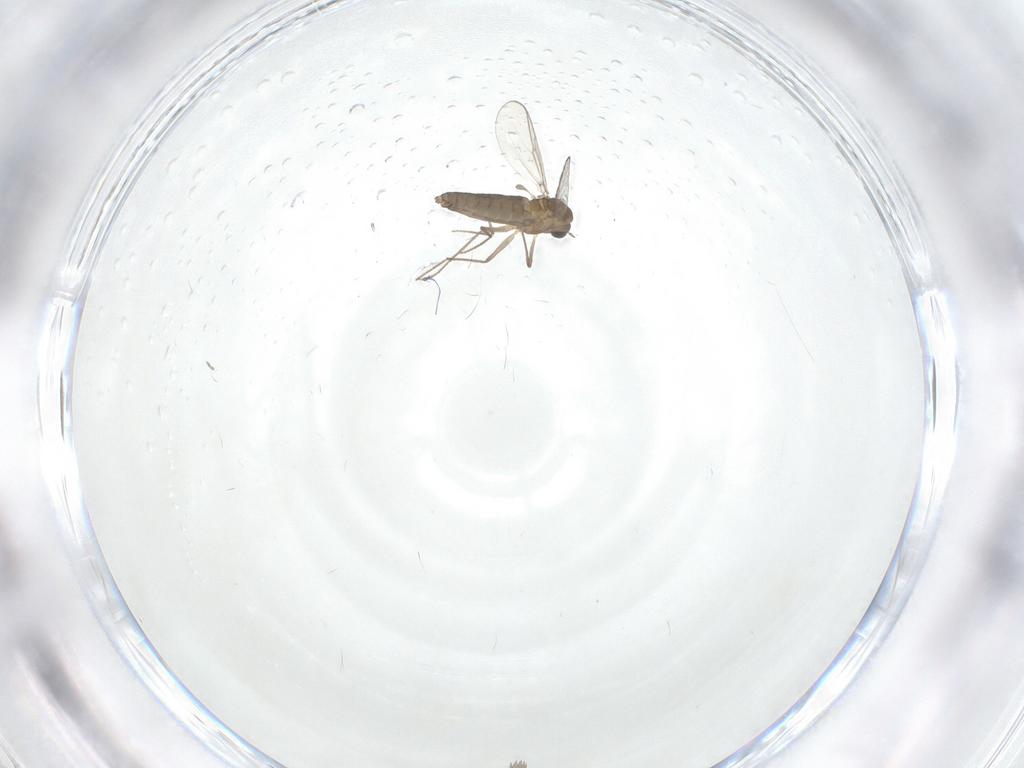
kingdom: Animalia
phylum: Arthropoda
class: Insecta
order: Diptera
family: Chironomidae
